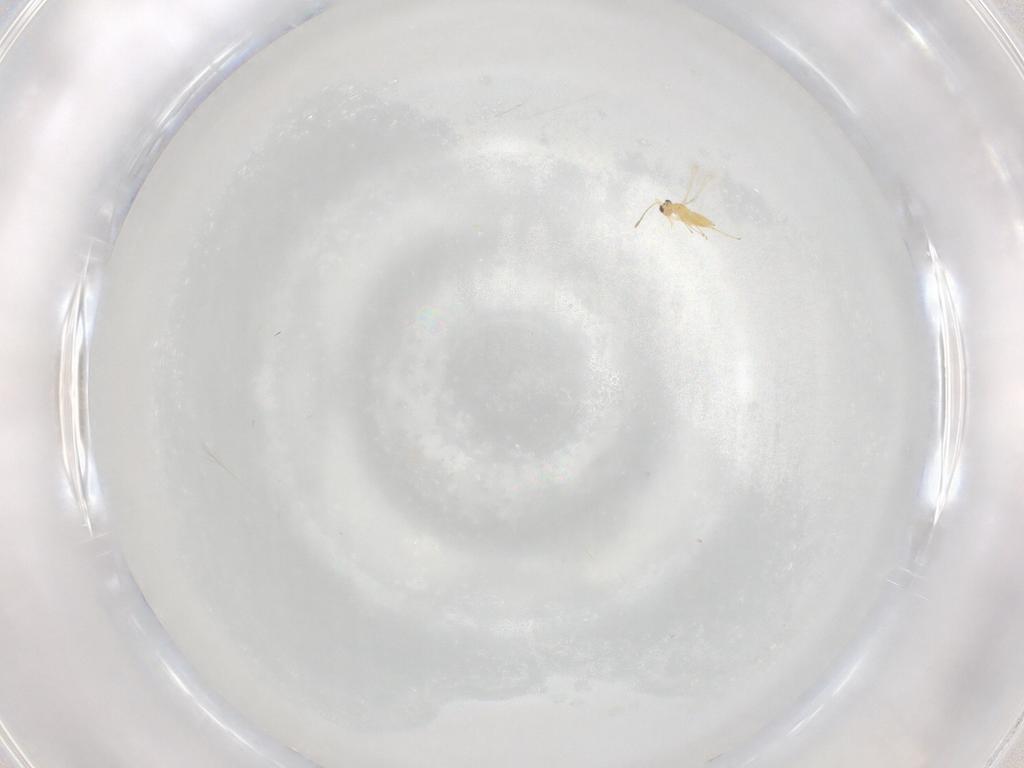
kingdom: Animalia
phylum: Arthropoda
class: Insecta
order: Hymenoptera
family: Mymaridae
